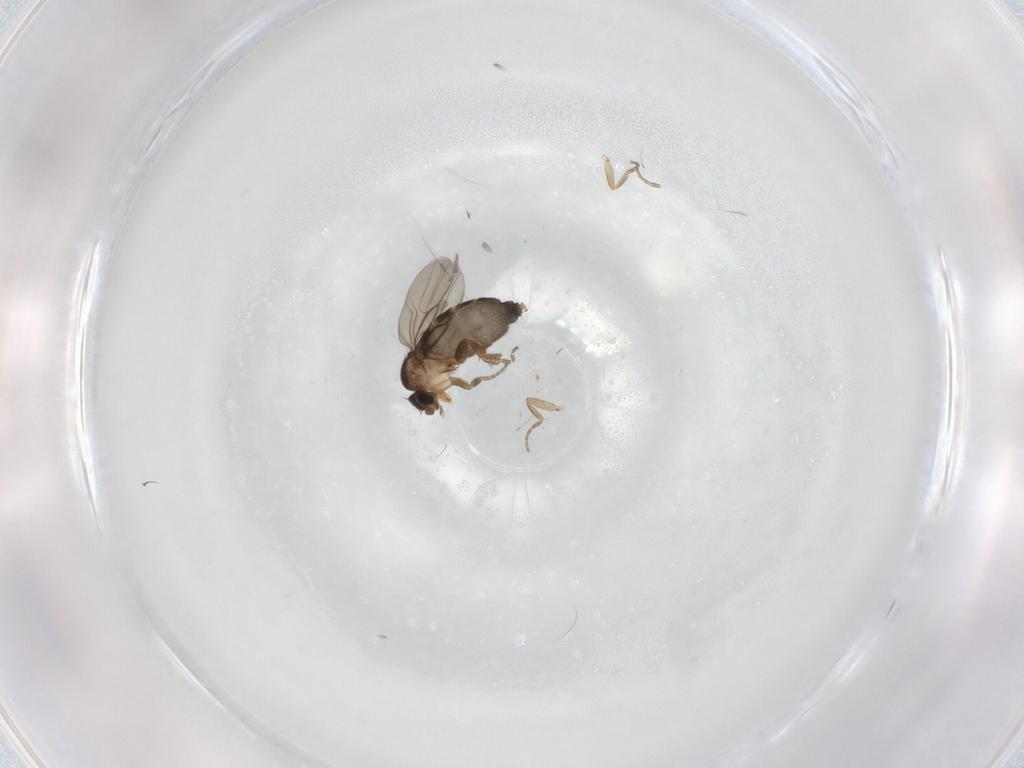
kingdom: Animalia
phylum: Arthropoda
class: Insecta
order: Diptera
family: Phoridae
